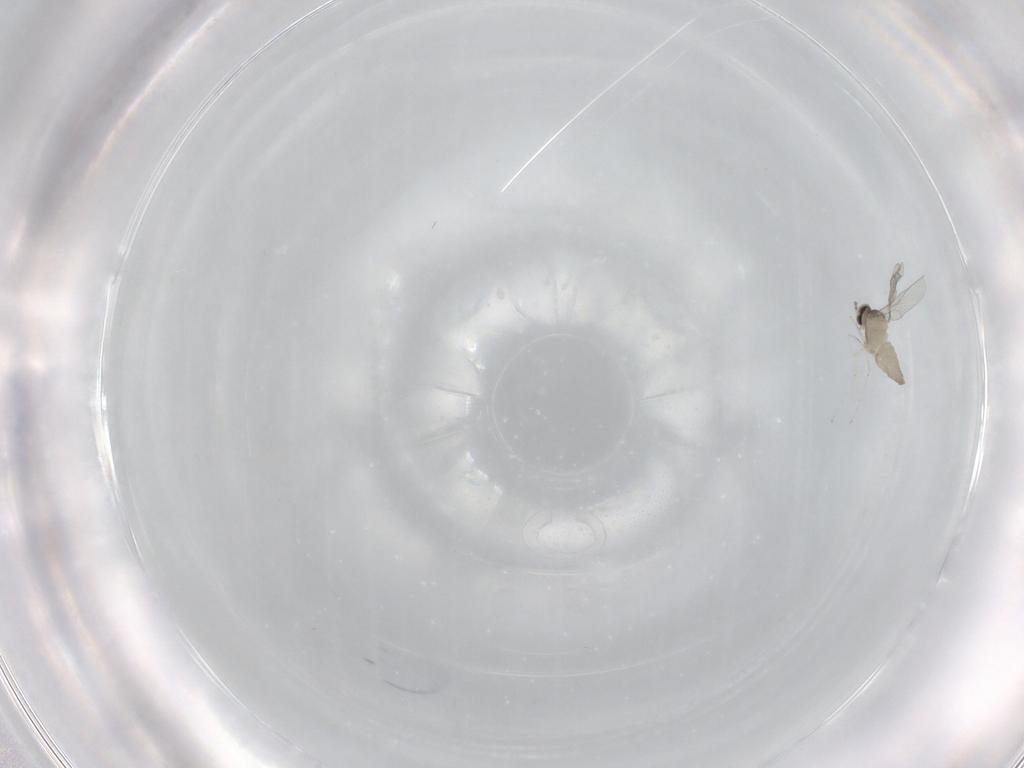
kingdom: Animalia
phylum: Arthropoda
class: Insecta
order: Diptera
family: Cecidomyiidae
